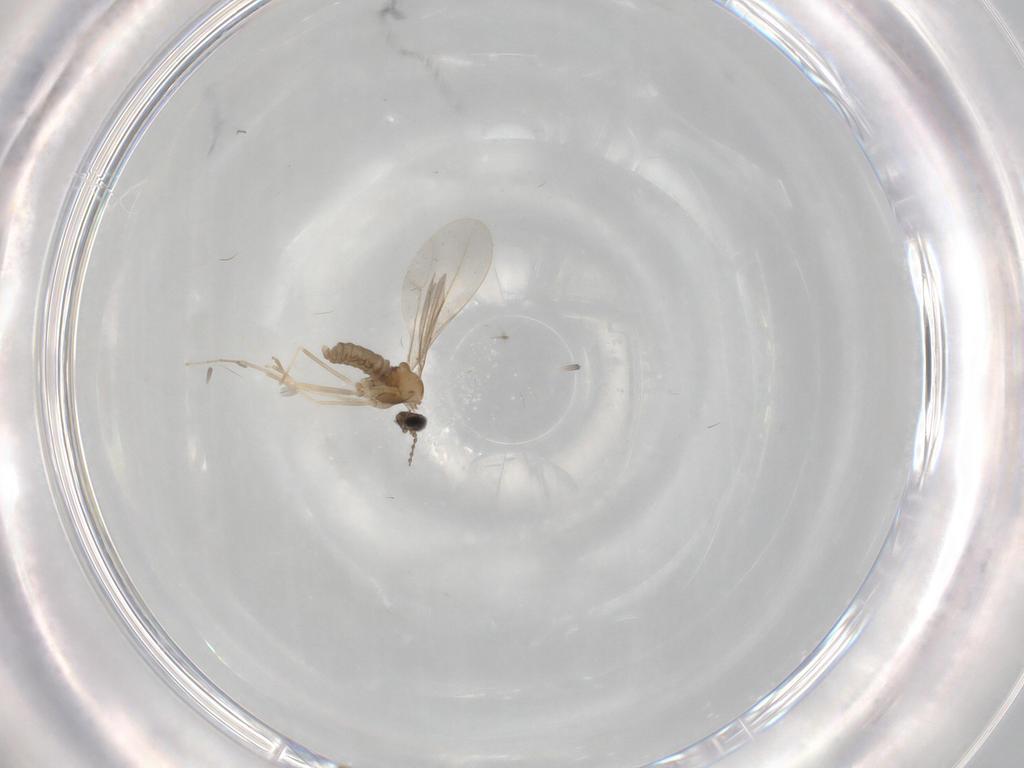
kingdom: Animalia
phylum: Arthropoda
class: Insecta
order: Diptera
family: Cecidomyiidae
